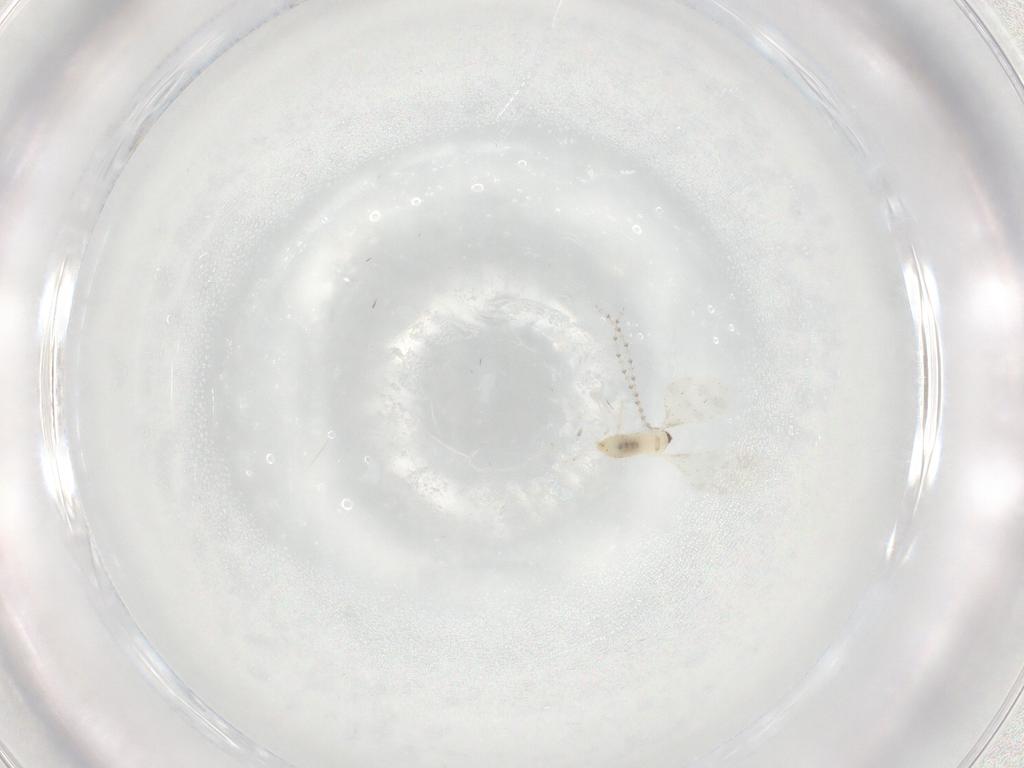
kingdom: Animalia
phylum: Arthropoda
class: Insecta
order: Diptera
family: Cecidomyiidae
